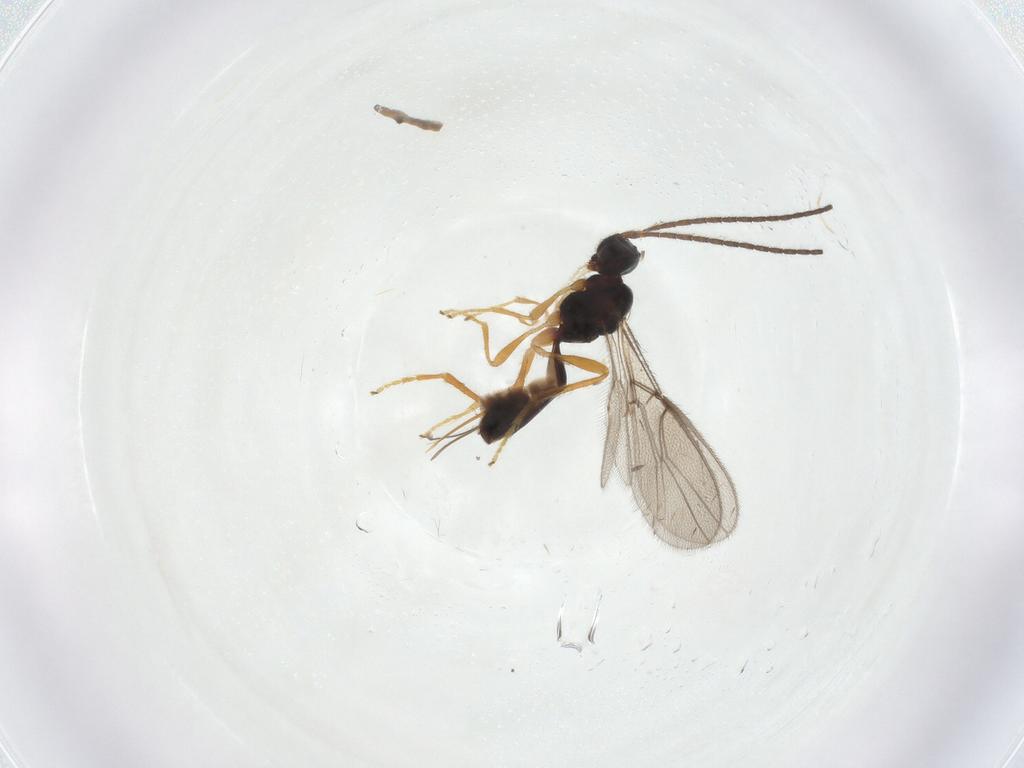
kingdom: Animalia
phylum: Arthropoda
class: Insecta
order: Hymenoptera
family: Braconidae
